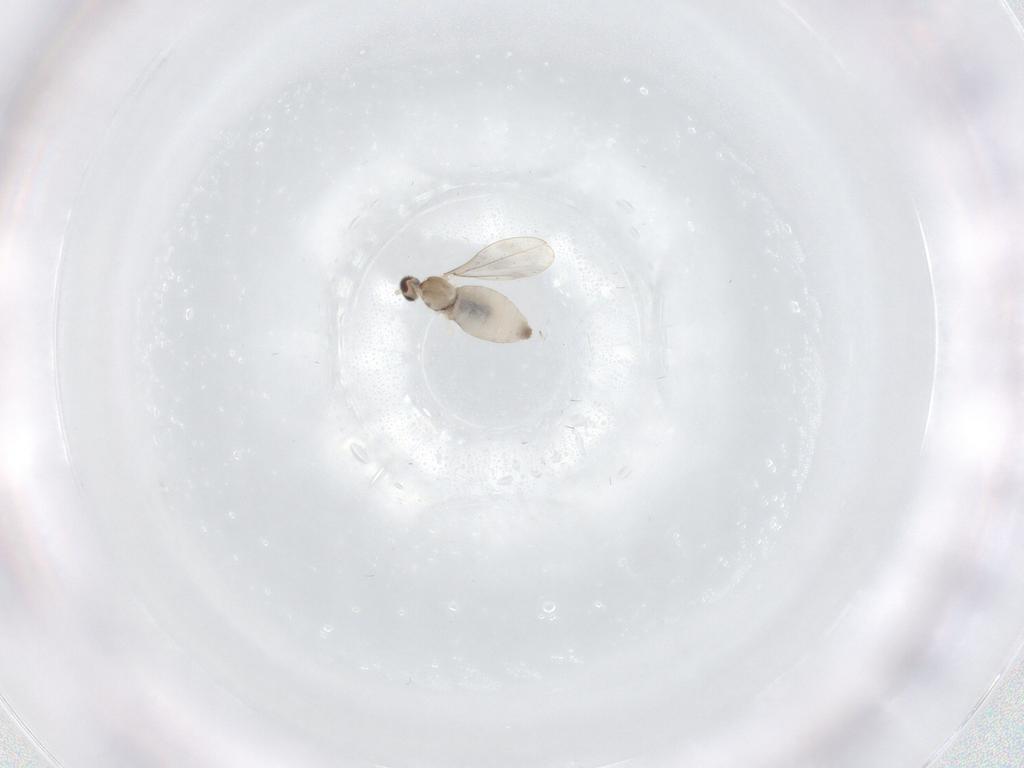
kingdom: Animalia
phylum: Arthropoda
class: Insecta
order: Diptera
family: Cecidomyiidae
